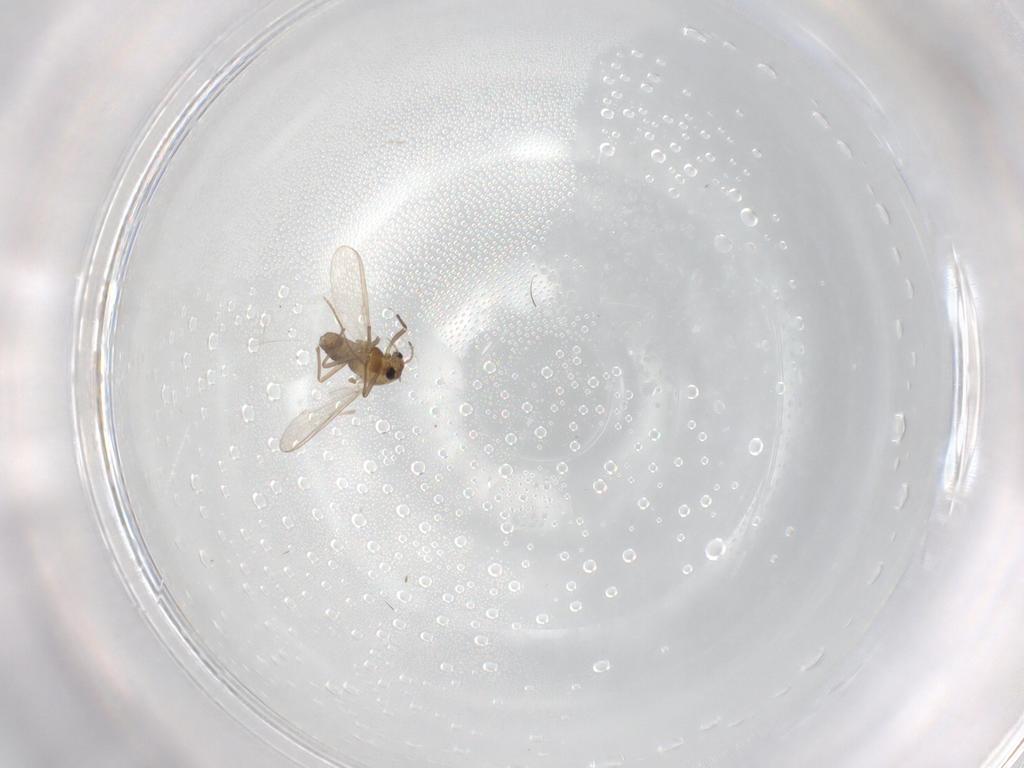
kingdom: Animalia
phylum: Arthropoda
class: Insecta
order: Diptera
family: Chironomidae
